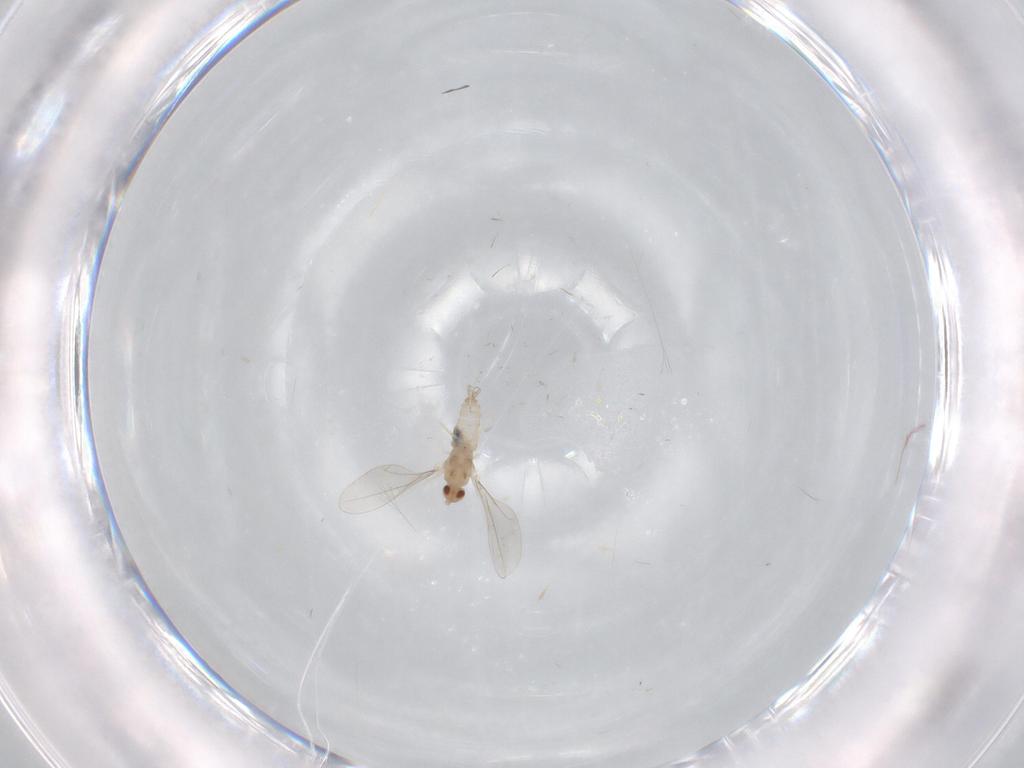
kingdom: Animalia
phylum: Arthropoda
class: Insecta
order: Diptera
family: Cecidomyiidae
